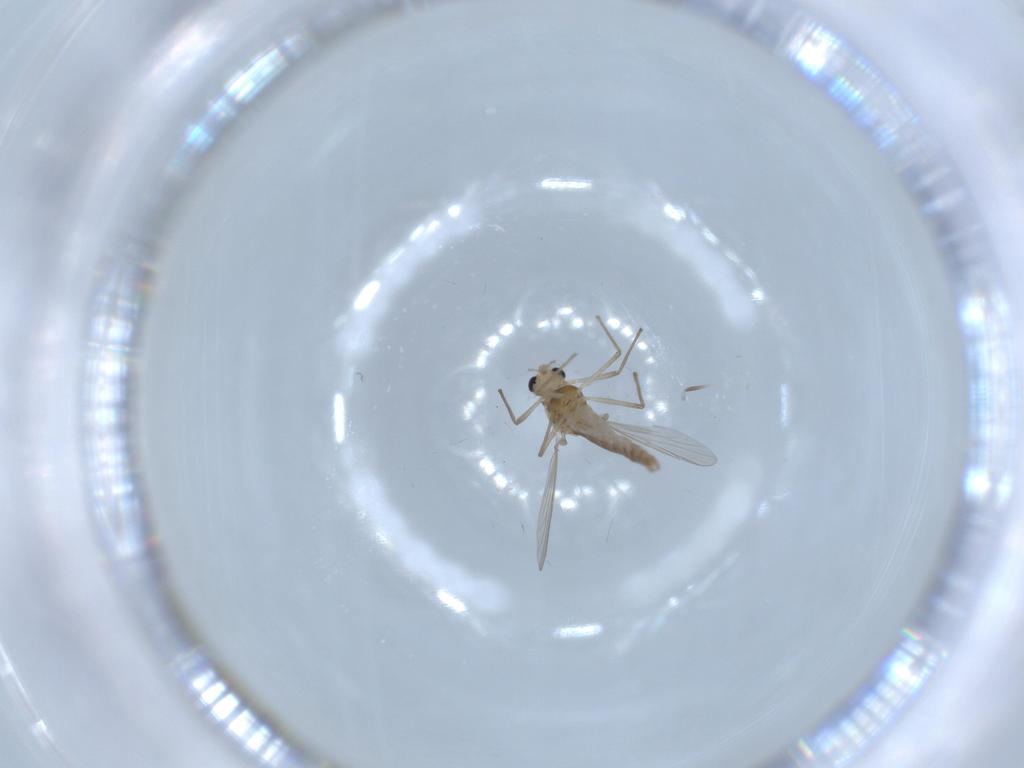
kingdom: Animalia
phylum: Arthropoda
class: Insecta
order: Diptera
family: Chironomidae
